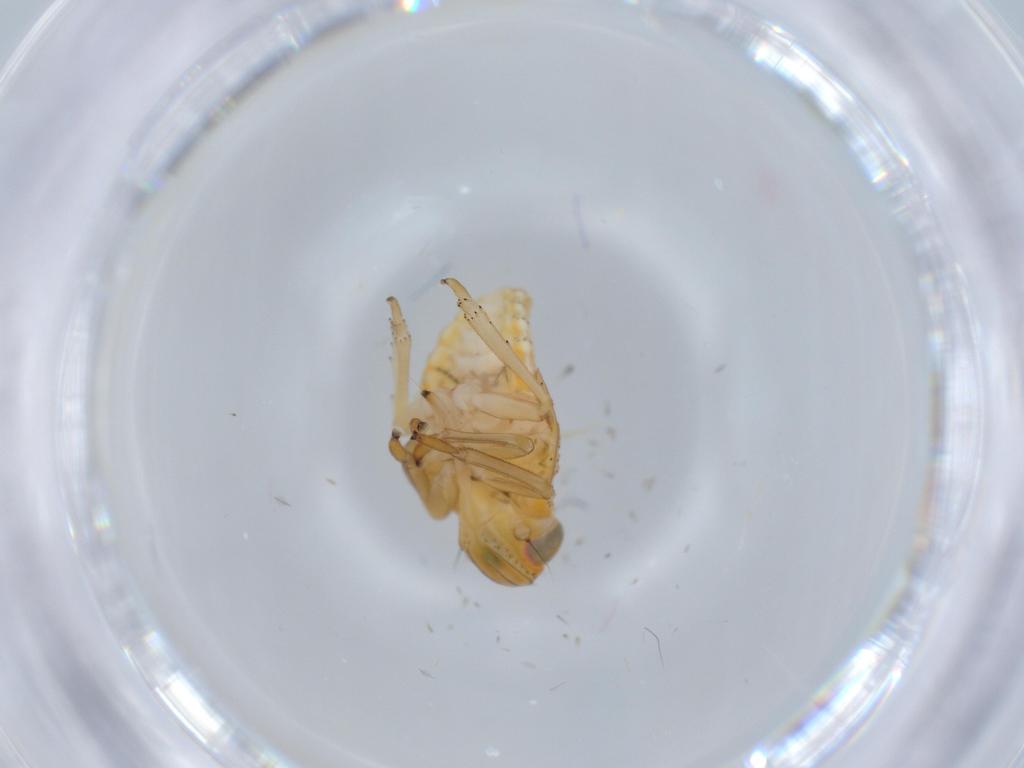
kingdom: Animalia
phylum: Arthropoda
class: Insecta
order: Hemiptera
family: Issidae
